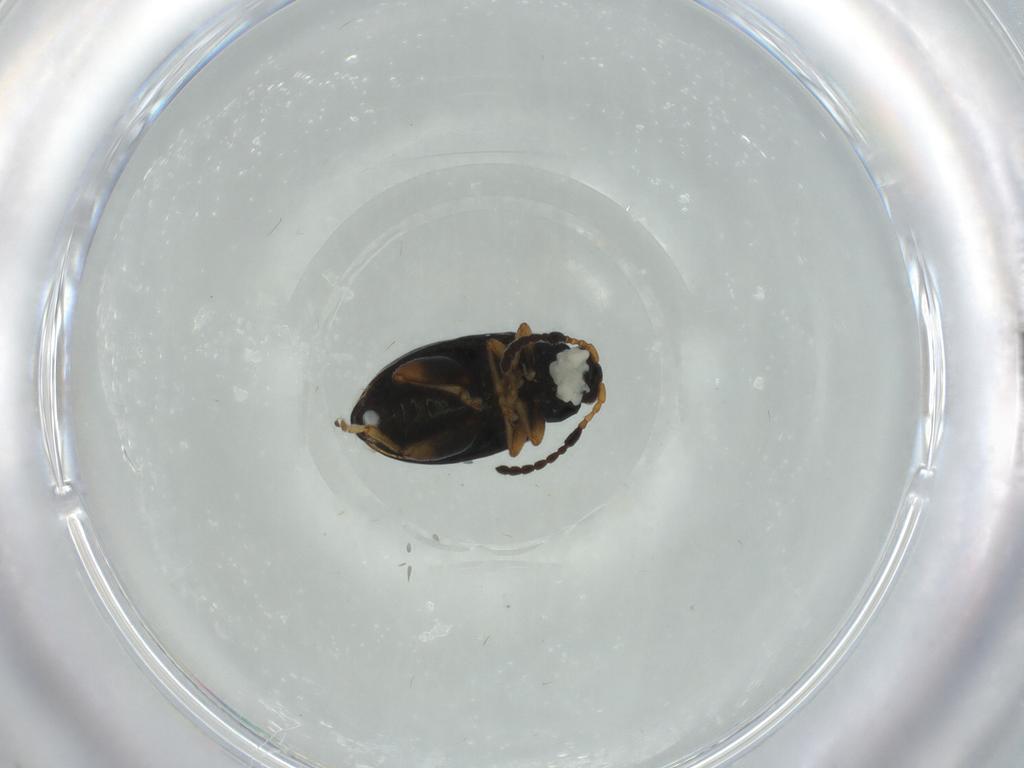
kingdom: Animalia
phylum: Arthropoda
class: Insecta
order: Coleoptera
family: Chrysomelidae
